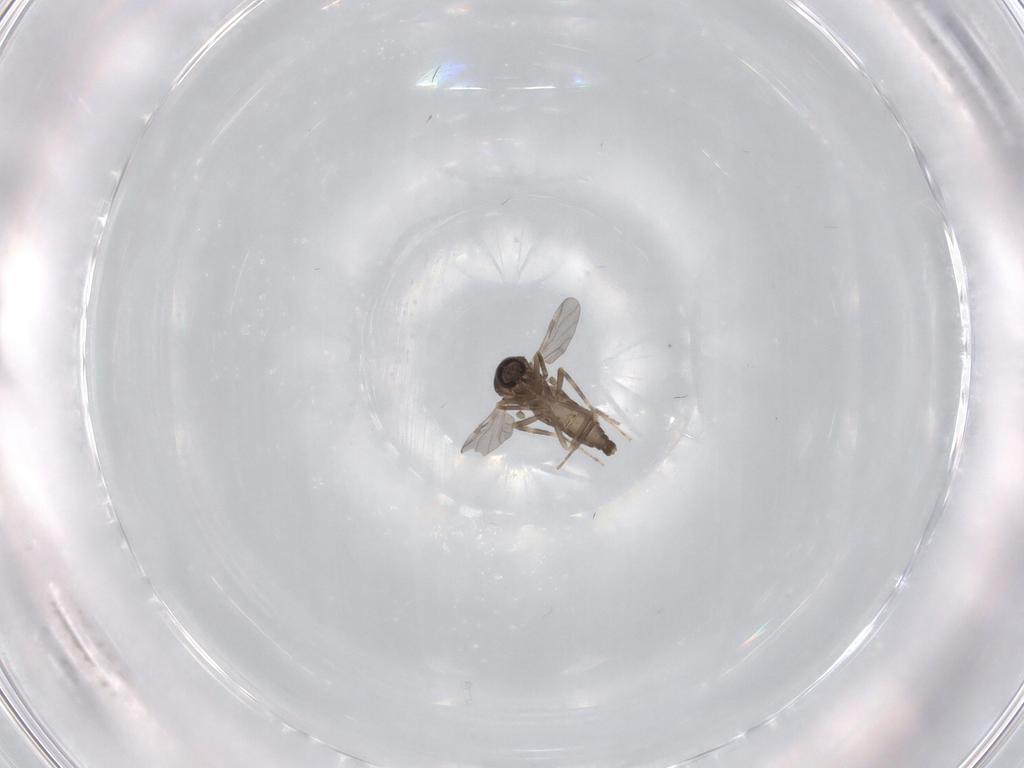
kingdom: Animalia
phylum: Arthropoda
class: Insecta
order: Diptera
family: Ceratopogonidae
